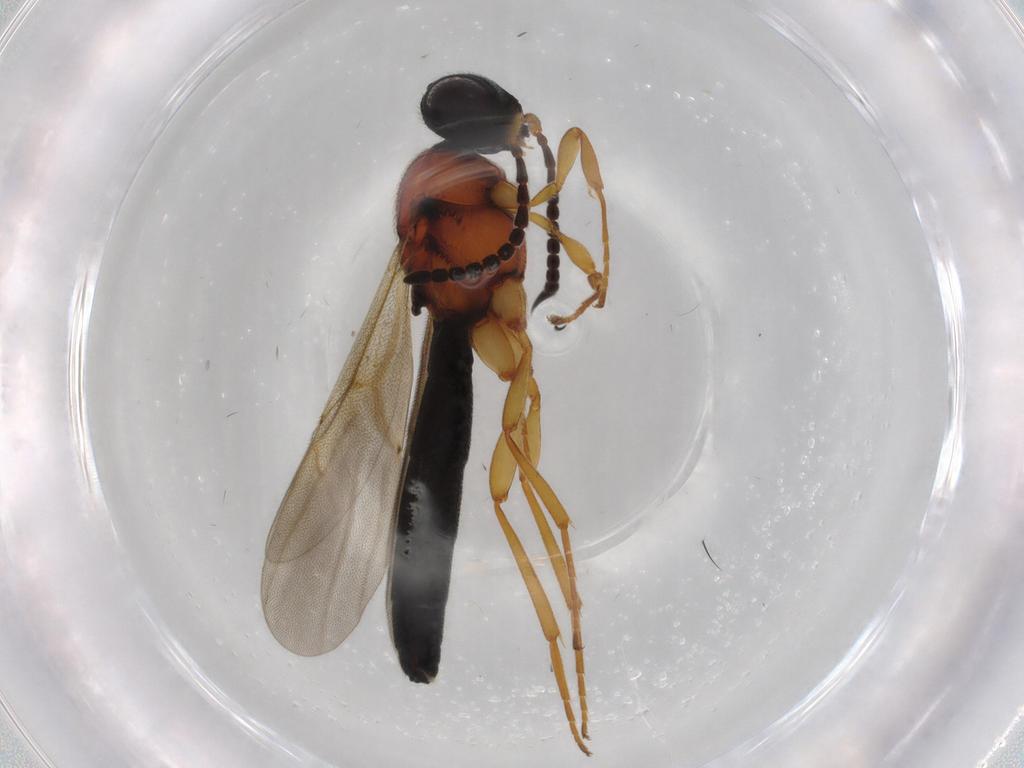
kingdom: Animalia
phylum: Arthropoda
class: Insecta
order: Hymenoptera
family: Scelionidae
